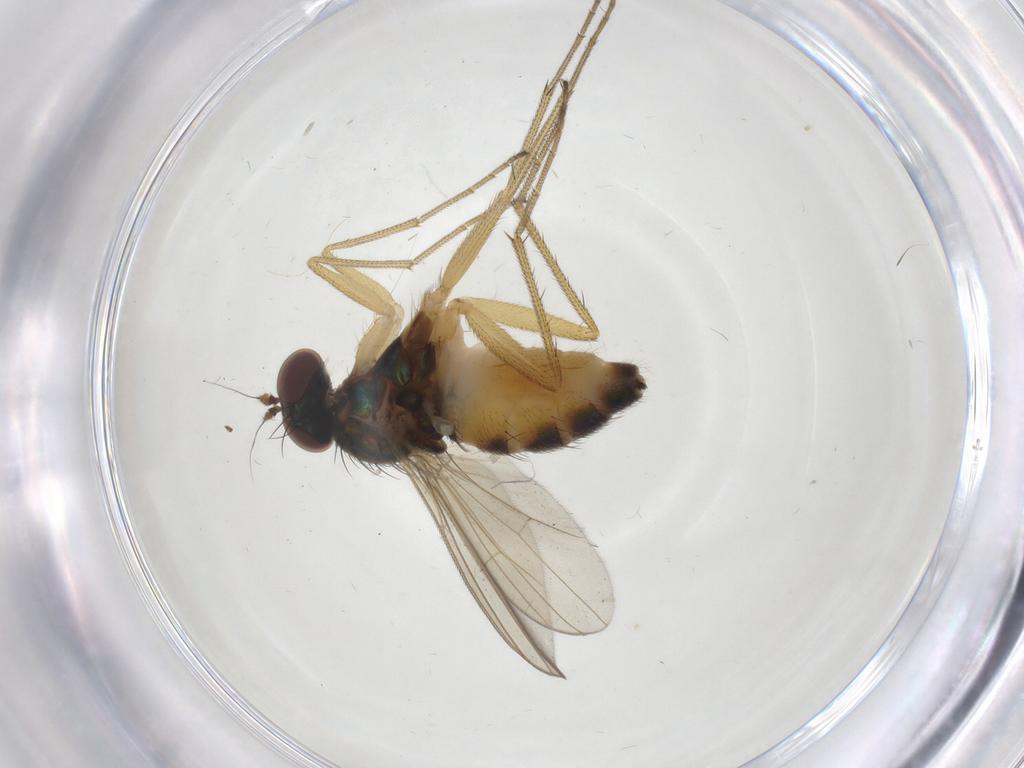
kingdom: Animalia
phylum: Arthropoda
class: Insecta
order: Diptera
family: Dolichopodidae
